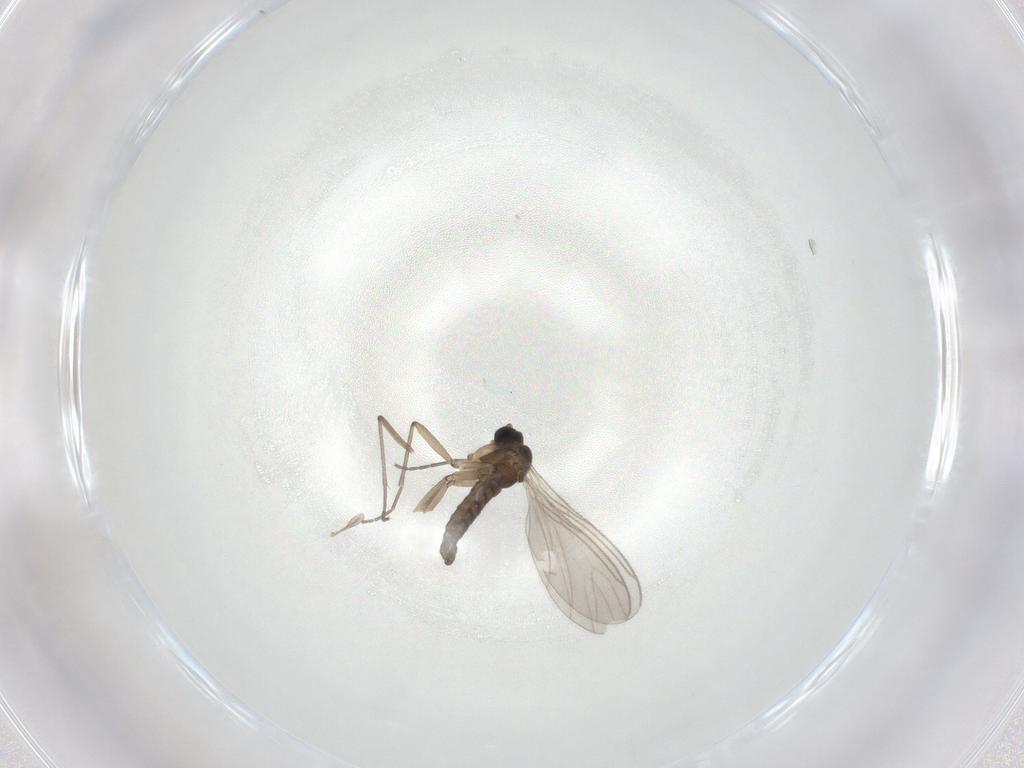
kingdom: Animalia
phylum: Arthropoda
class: Insecta
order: Diptera
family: Sciaridae
